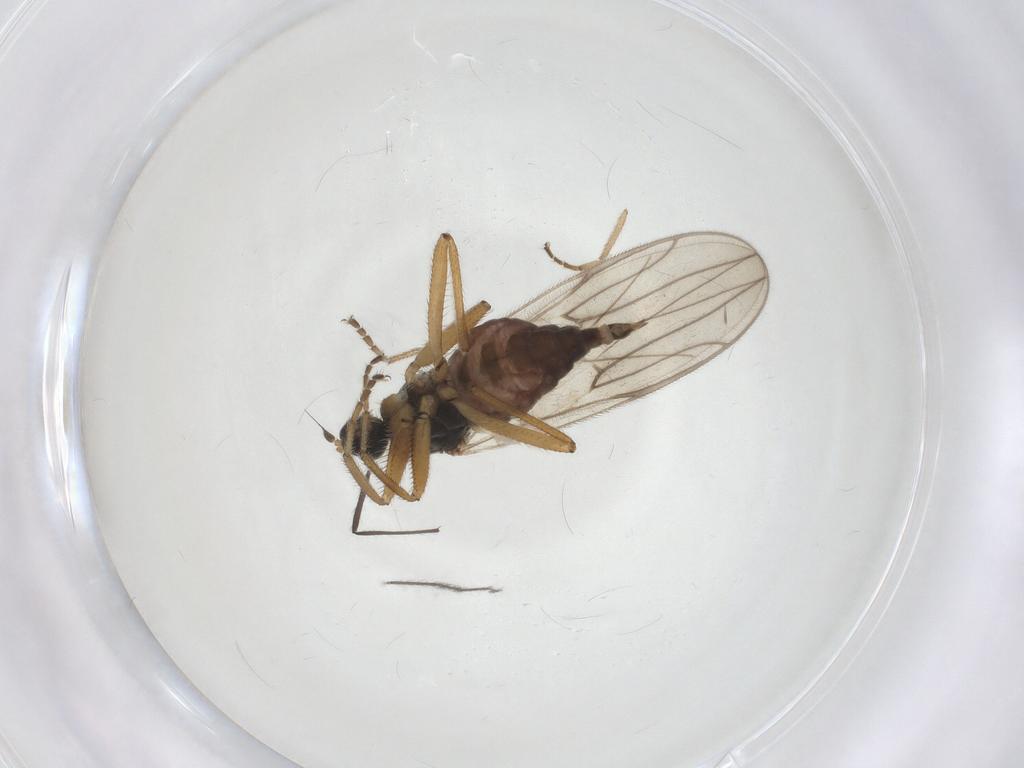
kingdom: Animalia
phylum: Arthropoda
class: Insecta
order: Diptera
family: Hybotidae
